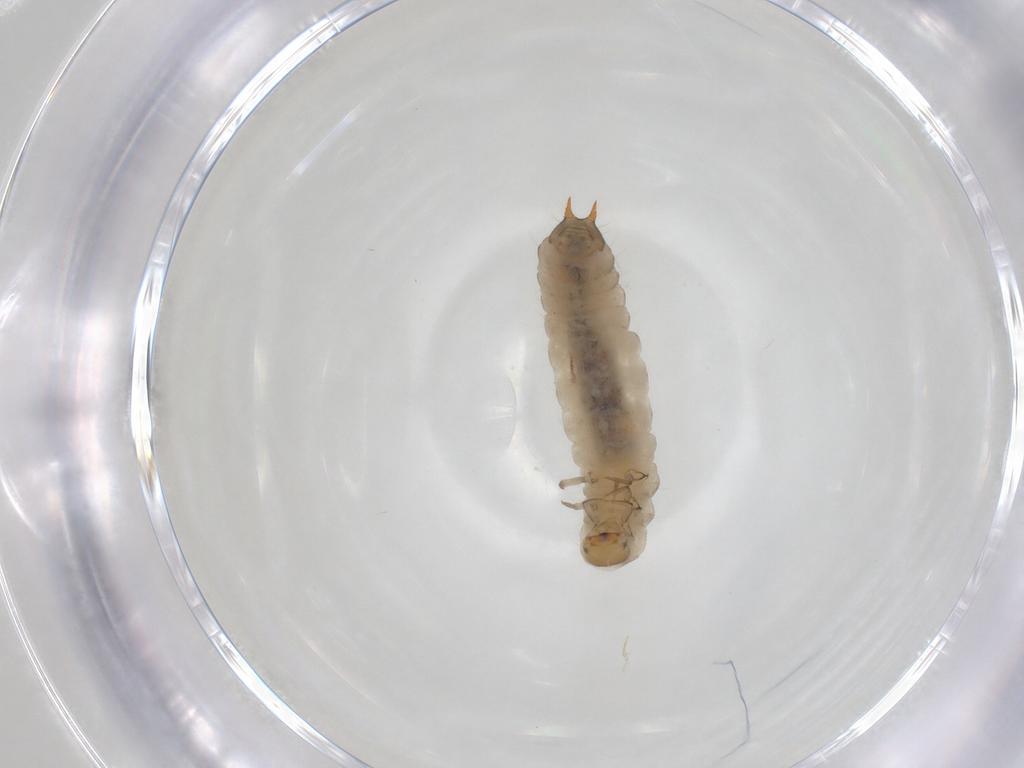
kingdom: Animalia
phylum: Arthropoda
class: Insecta
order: Coleoptera
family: Melyridae
